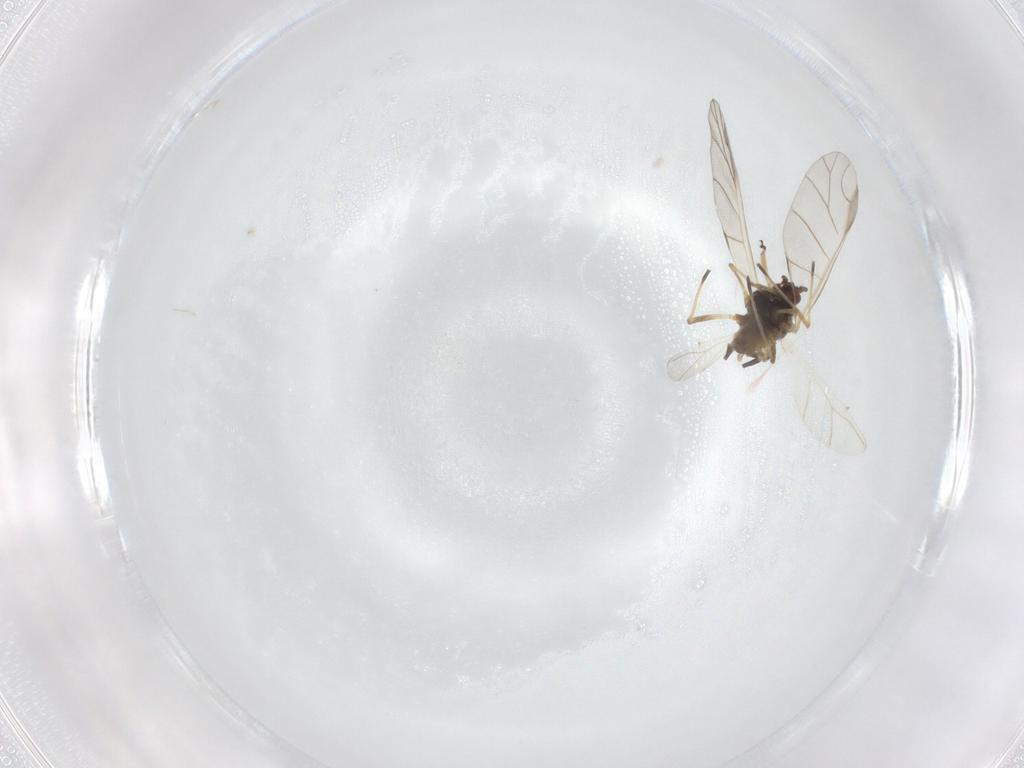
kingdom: Animalia
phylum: Arthropoda
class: Insecta
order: Hemiptera
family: Aphididae
